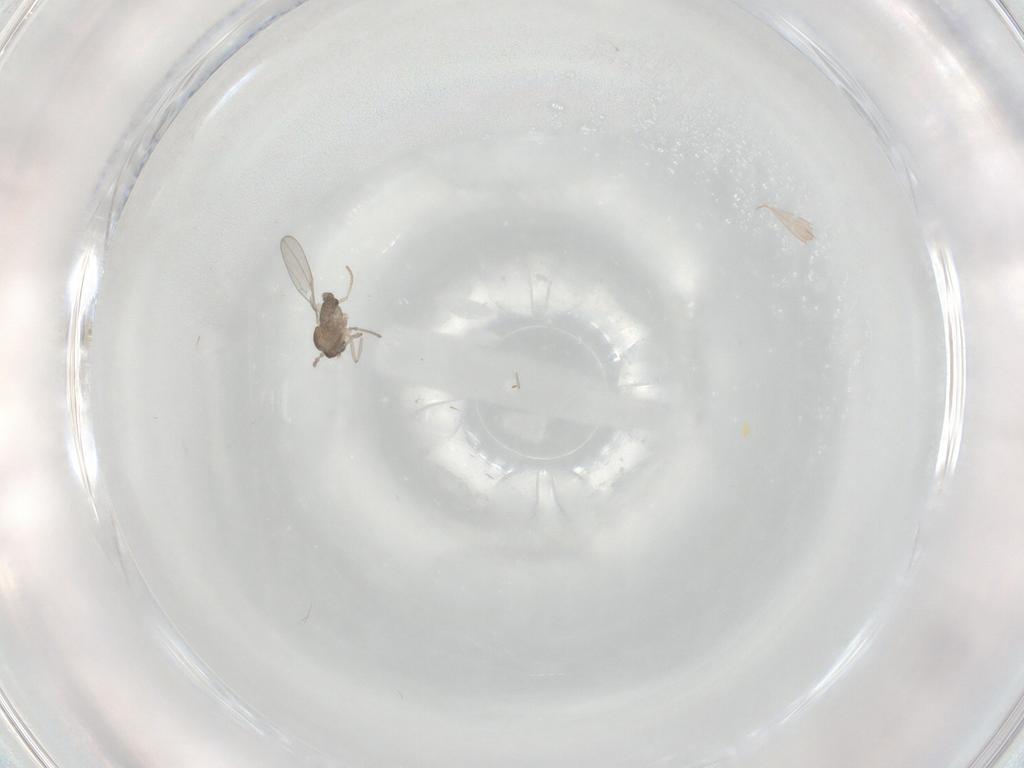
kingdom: Animalia
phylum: Arthropoda
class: Insecta
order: Diptera
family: Cecidomyiidae
